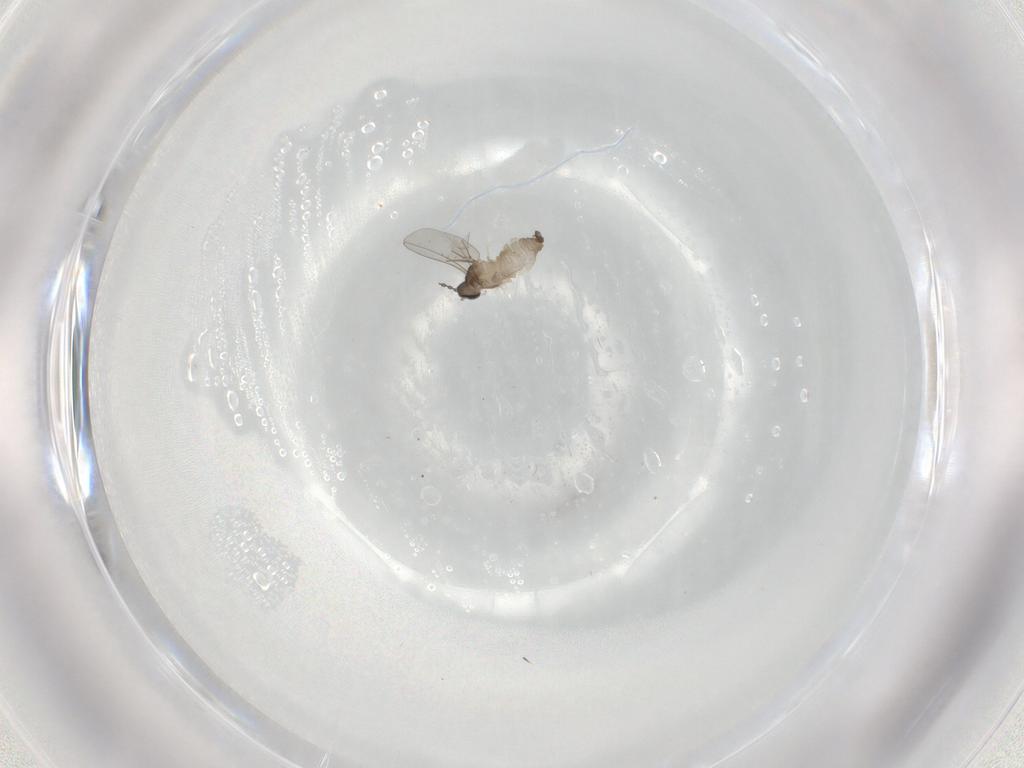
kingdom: Animalia
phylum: Arthropoda
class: Insecta
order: Diptera
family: Cecidomyiidae
